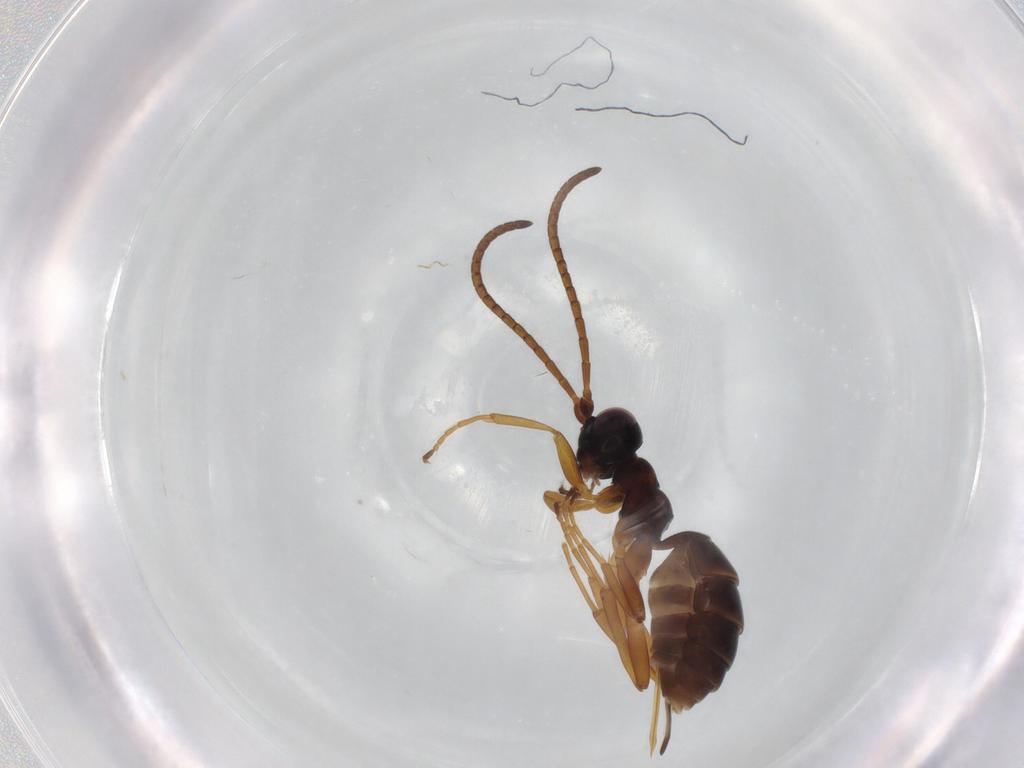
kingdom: Animalia
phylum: Arthropoda
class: Insecta
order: Hymenoptera
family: Ichneumonidae
